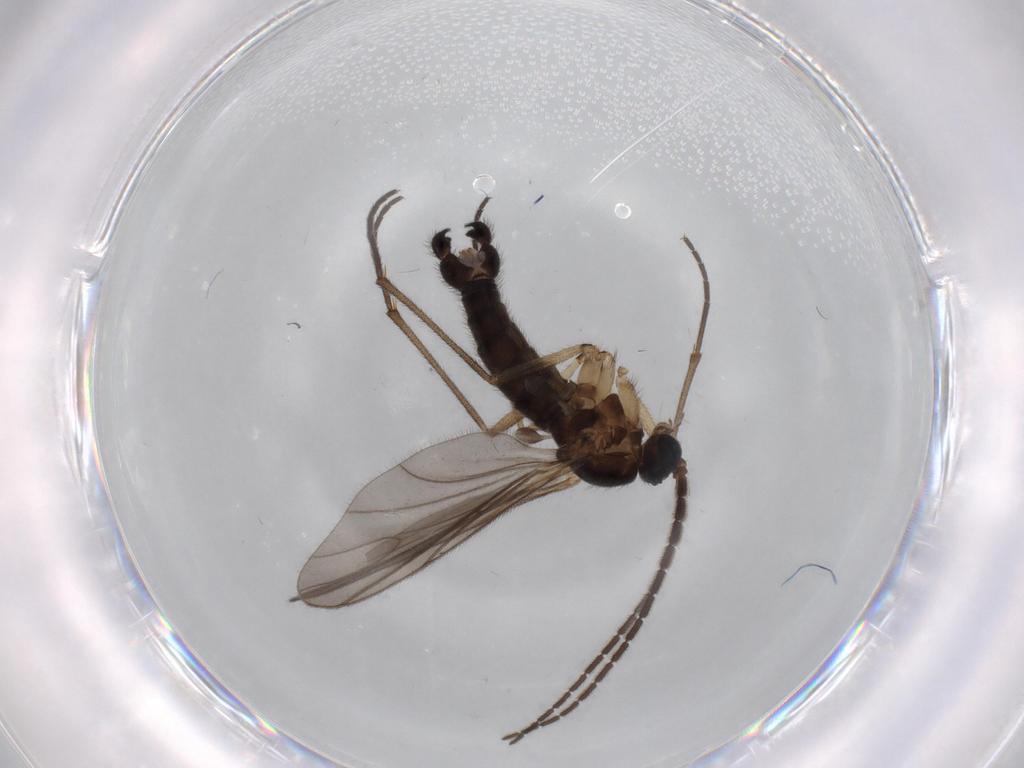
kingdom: Animalia
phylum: Arthropoda
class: Insecta
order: Diptera
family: Sciaridae
